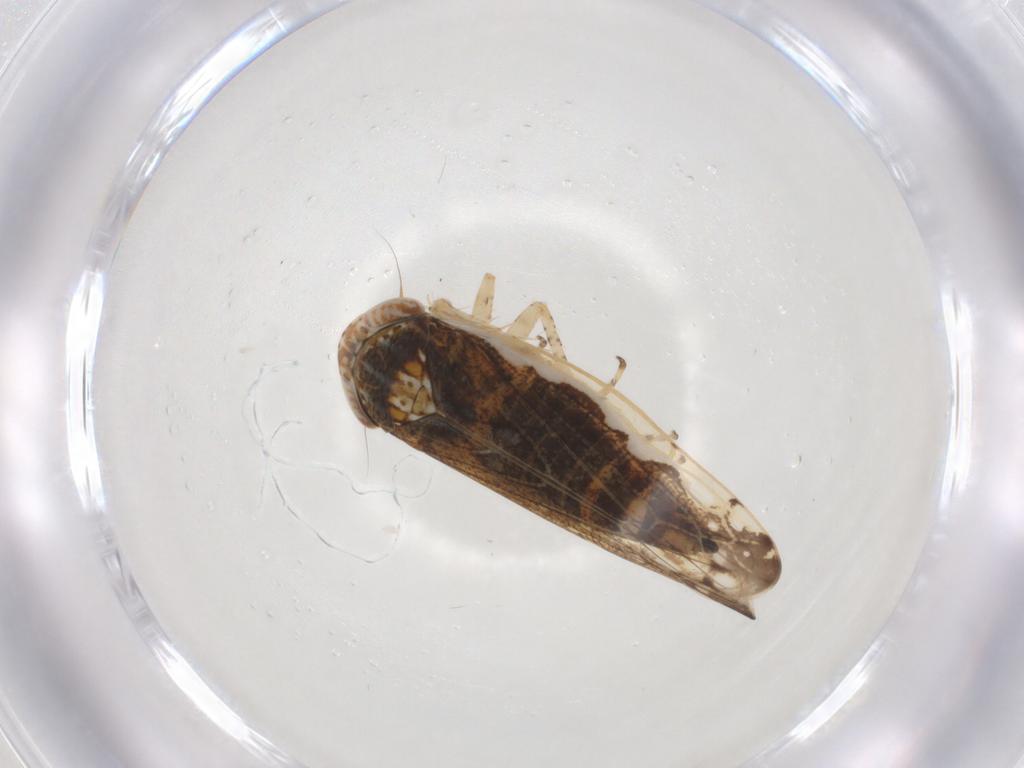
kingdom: Animalia
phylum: Arthropoda
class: Insecta
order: Hemiptera
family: Cicadellidae
